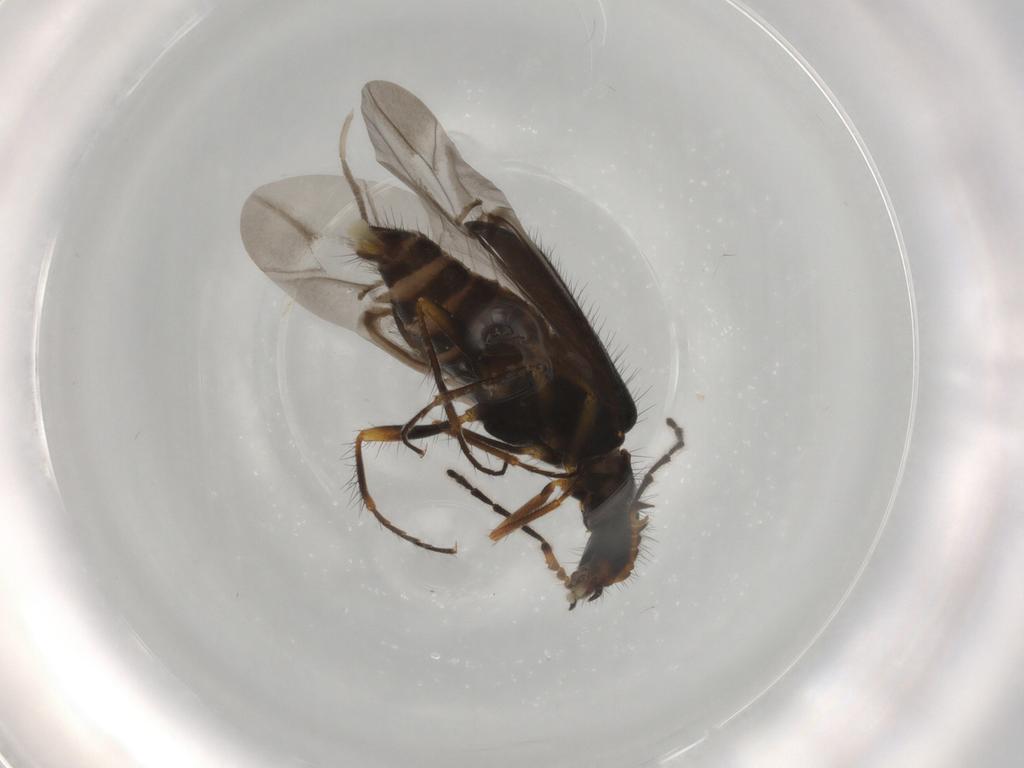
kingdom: Animalia
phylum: Arthropoda
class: Insecta
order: Coleoptera
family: Melyridae
